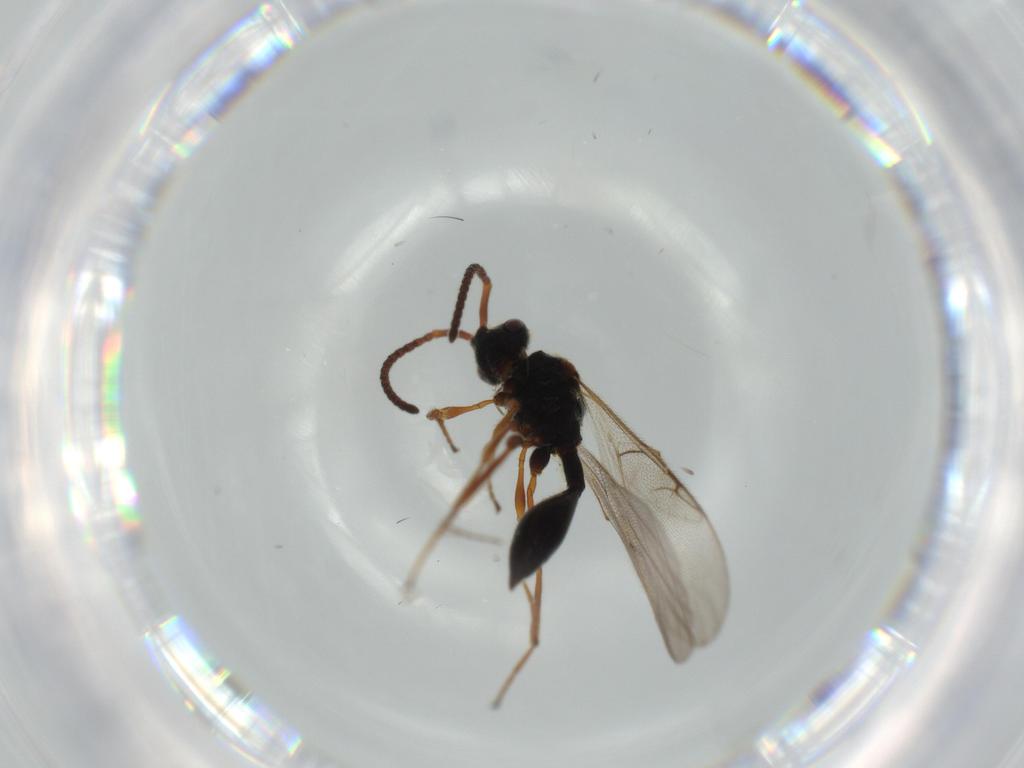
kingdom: Animalia
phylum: Arthropoda
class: Insecta
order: Hymenoptera
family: Diapriidae
